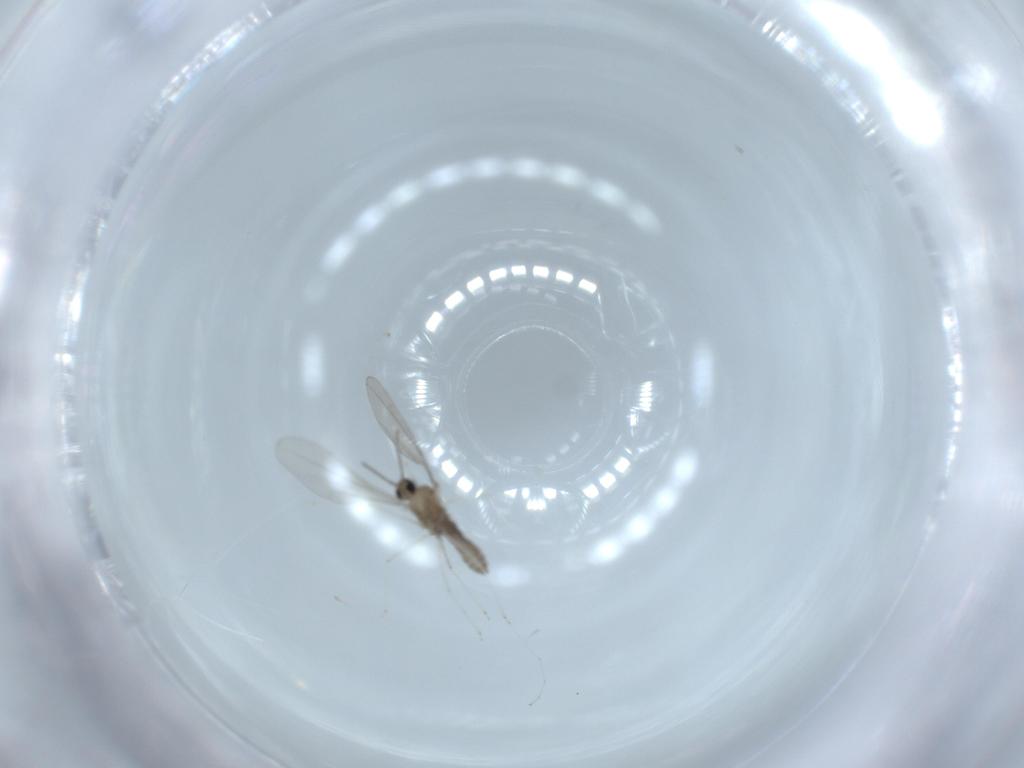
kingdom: Animalia
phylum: Arthropoda
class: Insecta
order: Diptera
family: Cecidomyiidae
